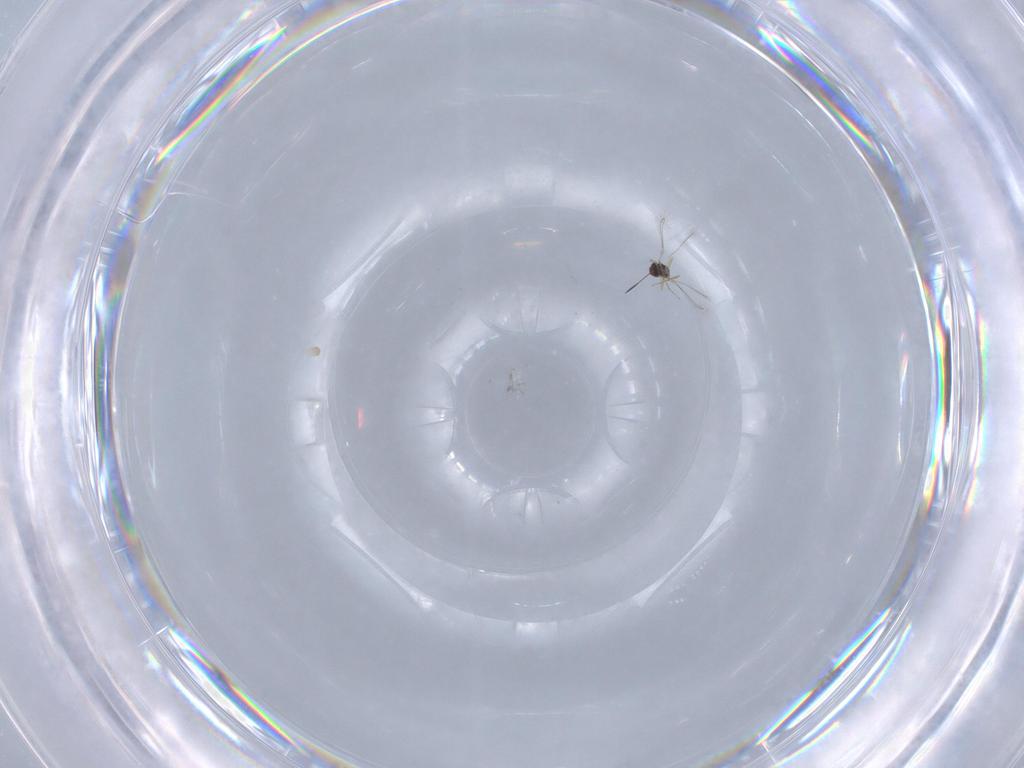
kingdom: Animalia
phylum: Arthropoda
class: Insecta
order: Hymenoptera
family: Mymaridae
